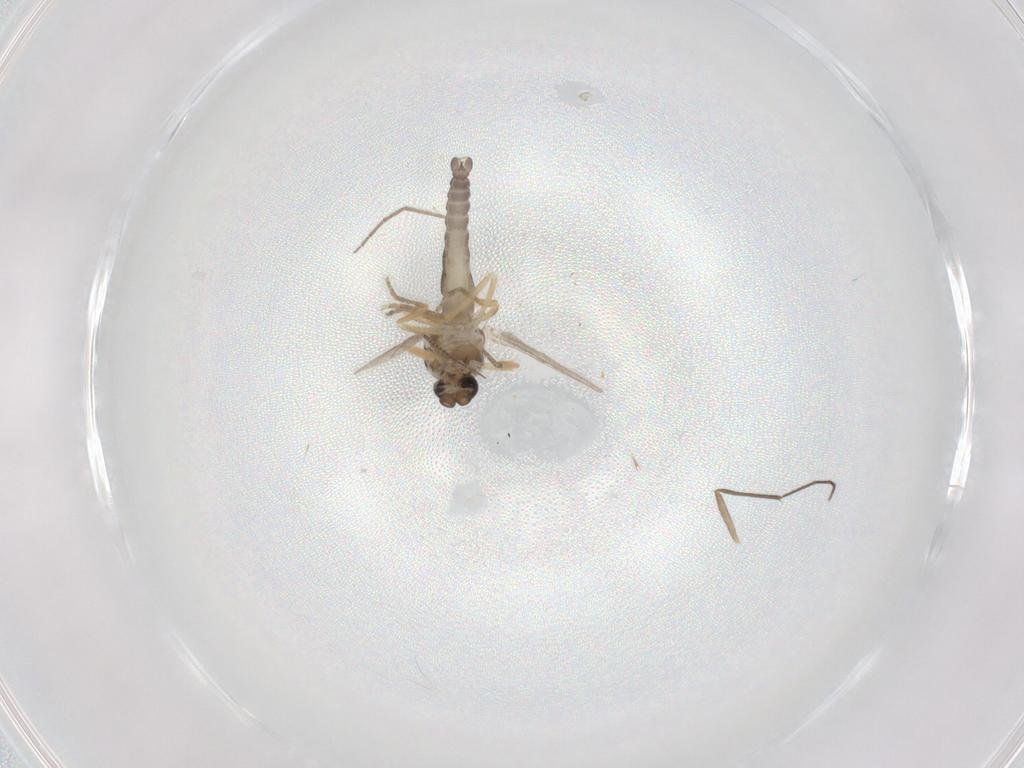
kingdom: Animalia
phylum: Arthropoda
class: Insecta
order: Diptera
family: Ceratopogonidae
